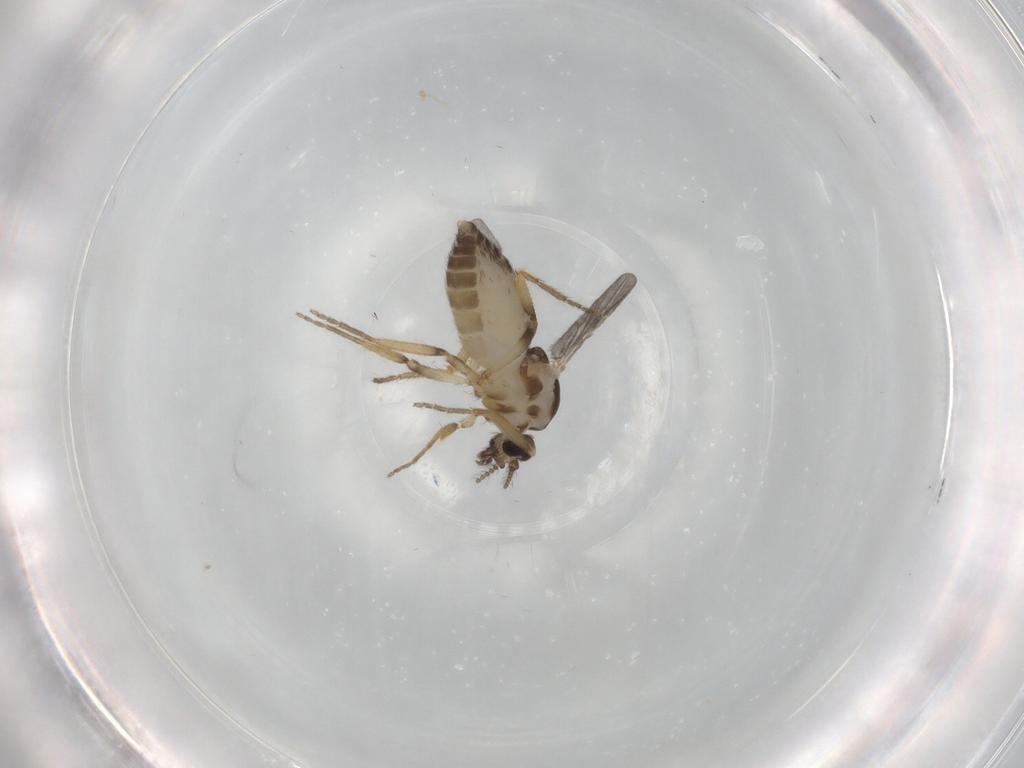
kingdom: Animalia
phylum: Arthropoda
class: Insecta
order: Diptera
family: Ceratopogonidae
